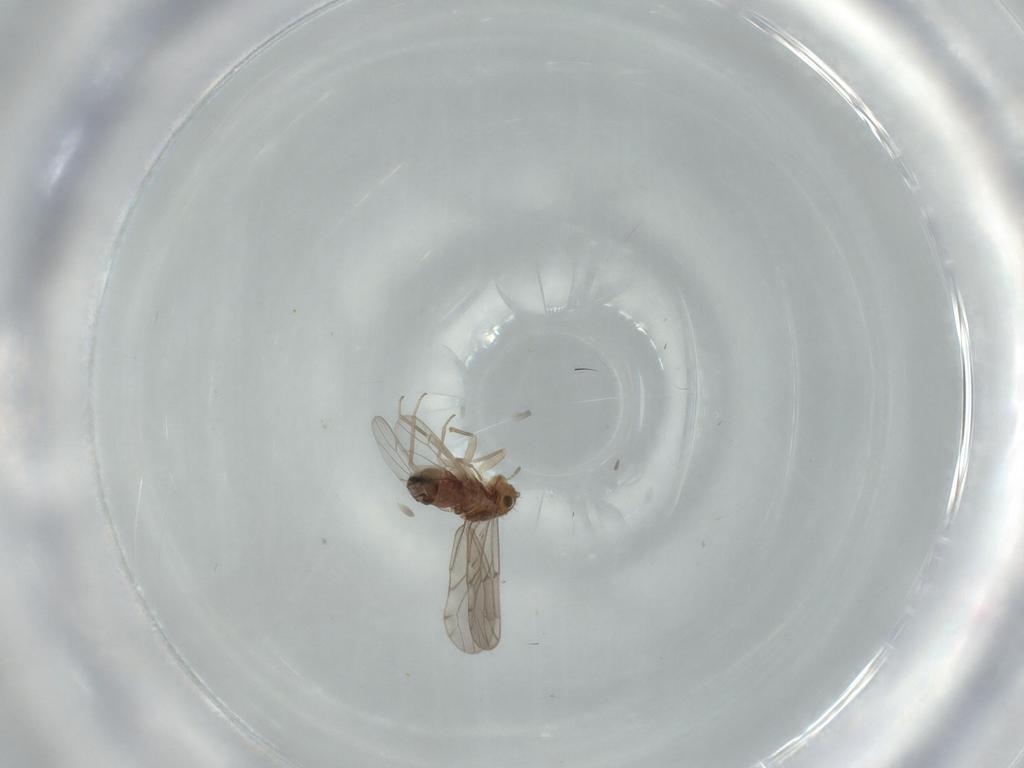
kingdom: Animalia
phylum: Arthropoda
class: Insecta
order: Psocodea
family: Ectopsocidae
